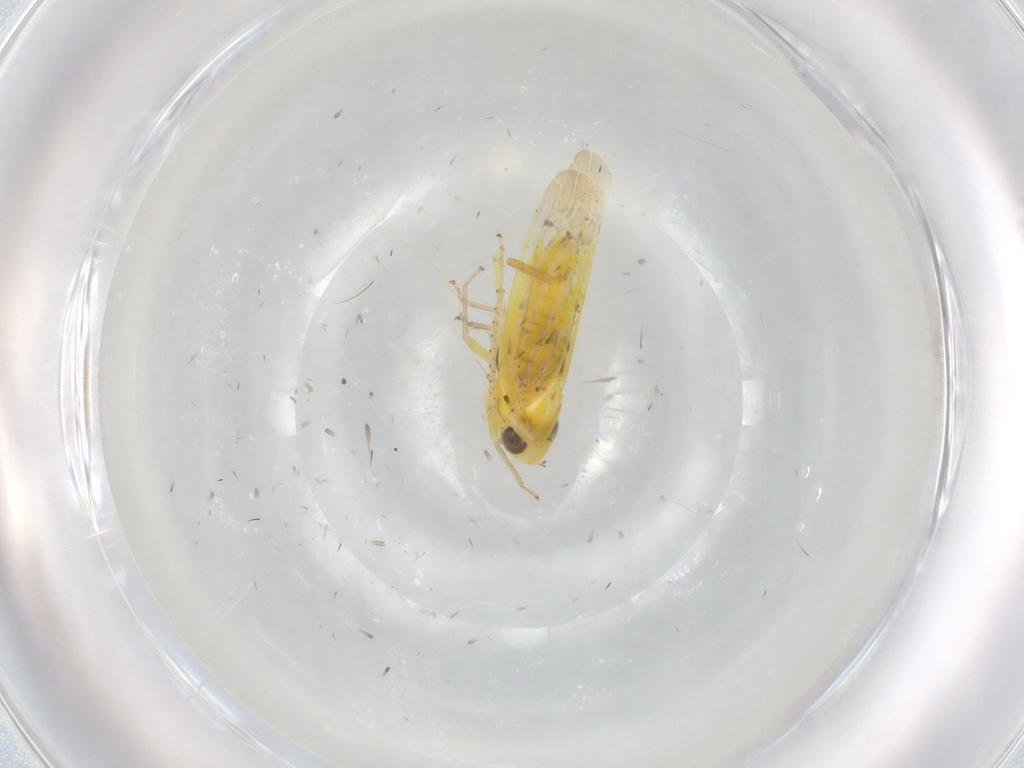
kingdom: Animalia
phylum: Arthropoda
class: Insecta
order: Hemiptera
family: Cicadellidae
